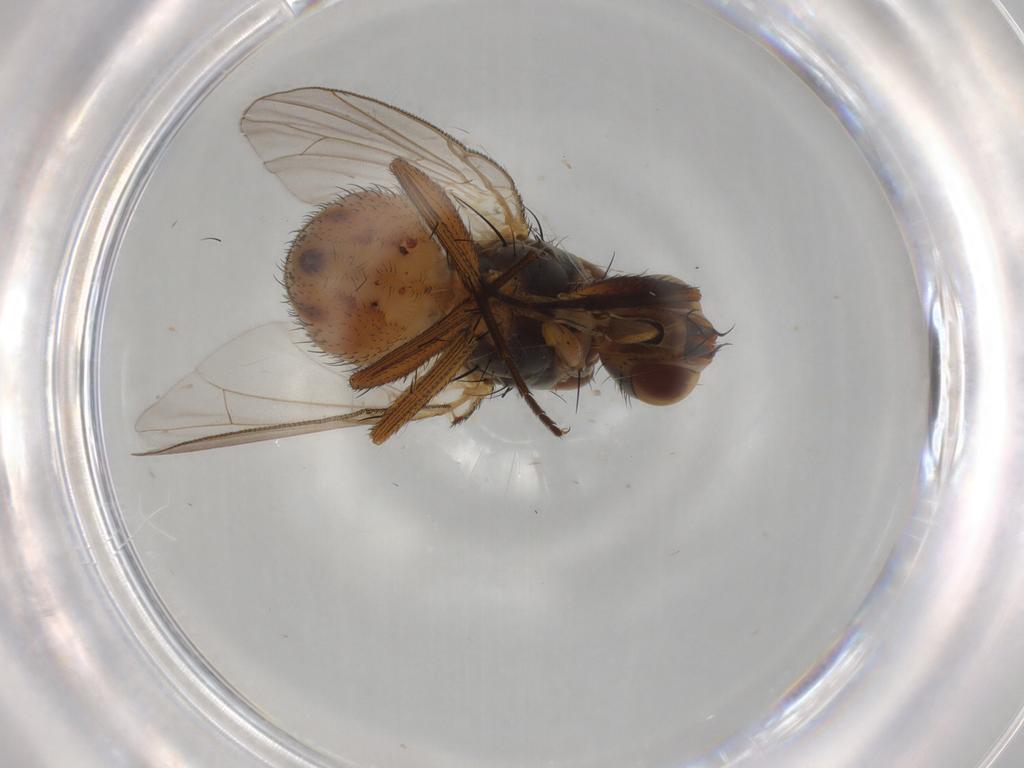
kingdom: Animalia
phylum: Arthropoda
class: Insecta
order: Diptera
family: Muscidae
